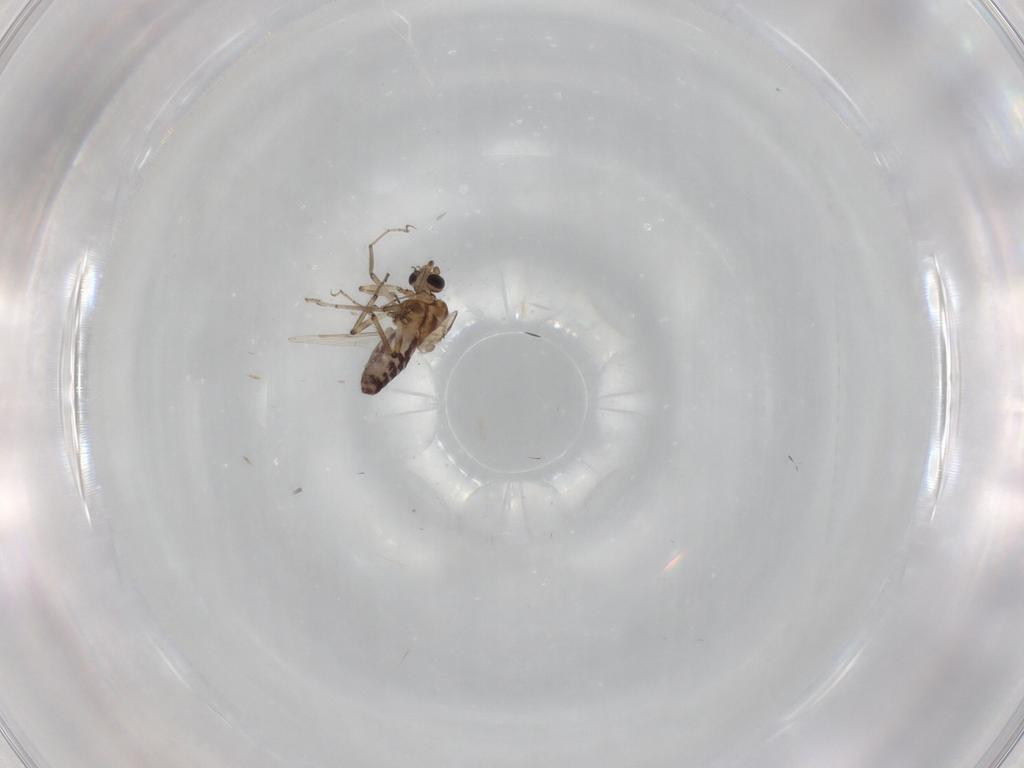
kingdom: Animalia
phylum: Arthropoda
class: Insecta
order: Diptera
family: Ceratopogonidae
